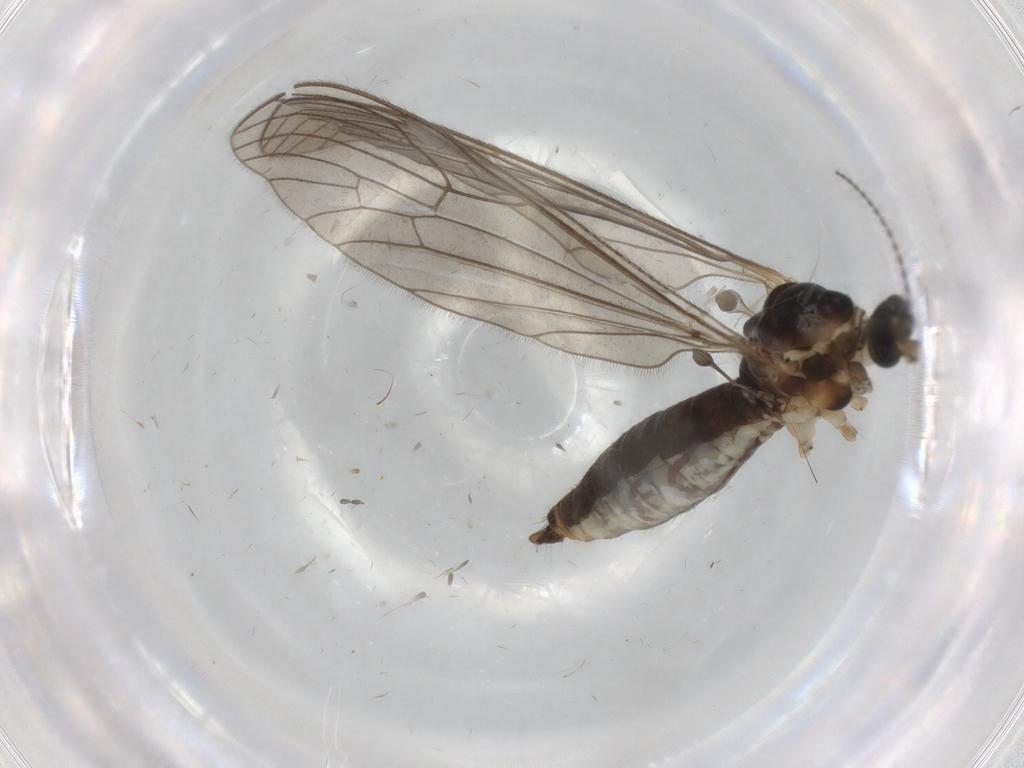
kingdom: Animalia
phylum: Arthropoda
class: Insecta
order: Diptera
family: Limoniidae
